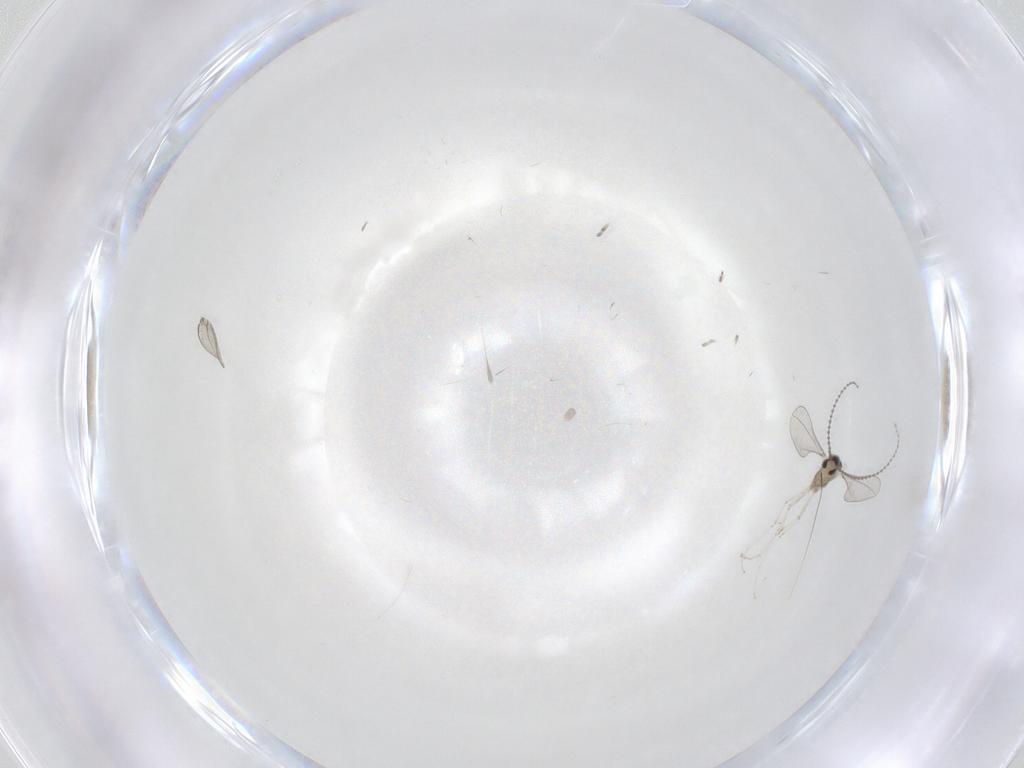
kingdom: Animalia
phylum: Arthropoda
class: Insecta
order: Diptera
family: Cecidomyiidae
